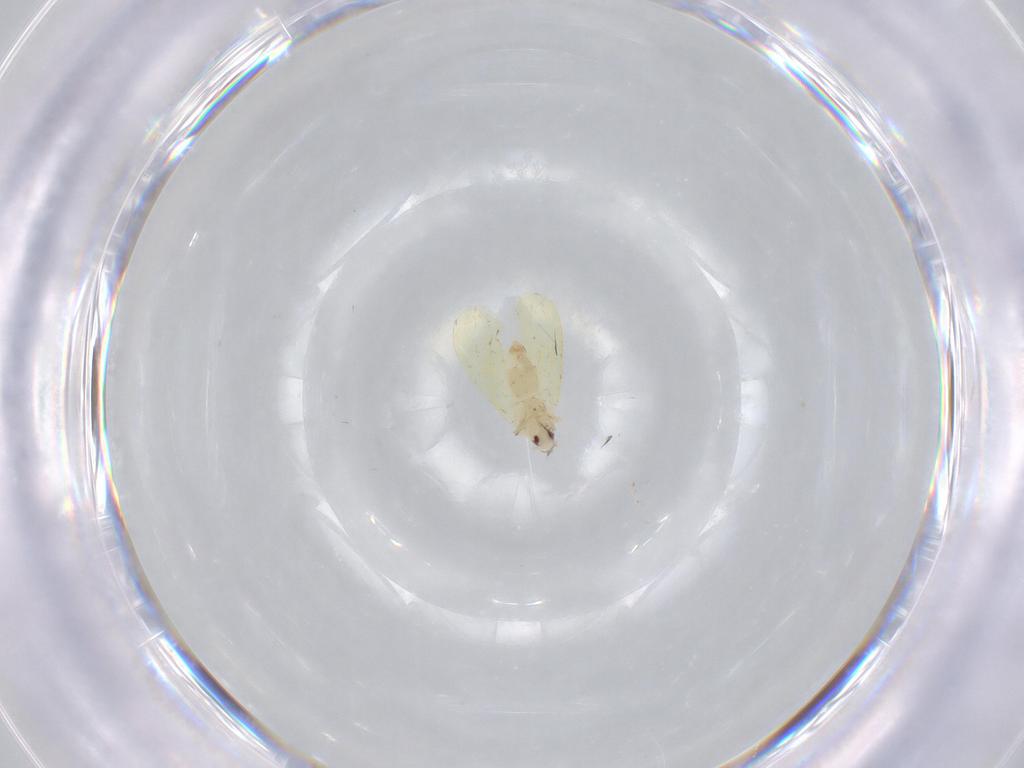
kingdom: Animalia
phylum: Arthropoda
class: Insecta
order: Hemiptera
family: Aleyrodidae
